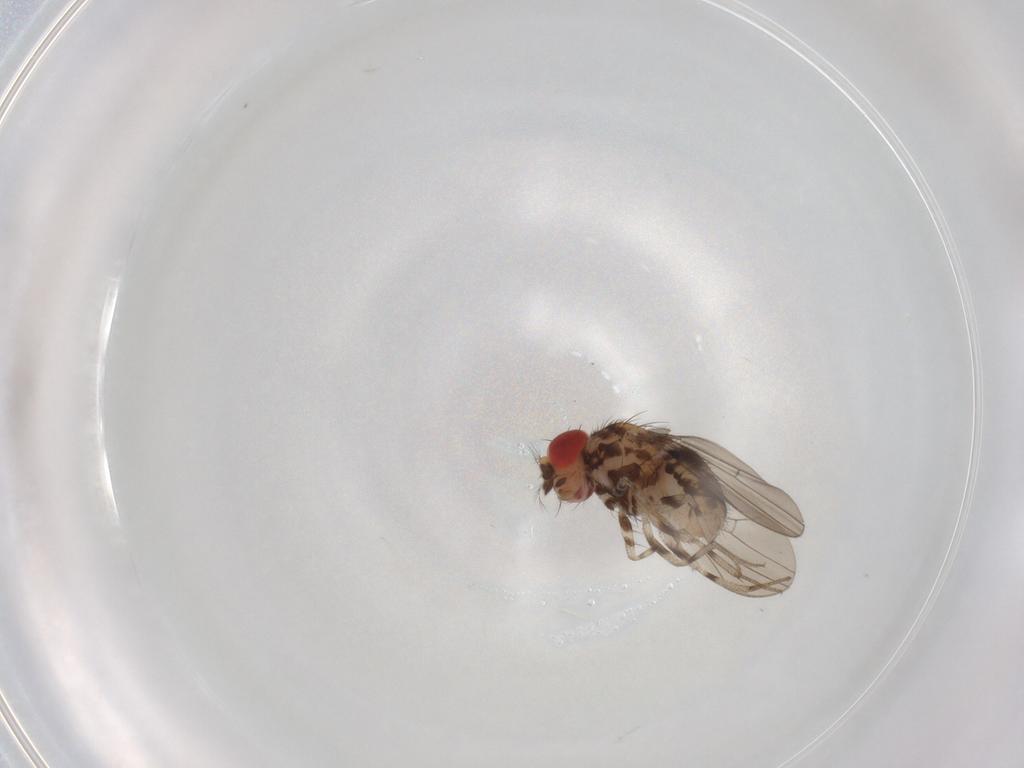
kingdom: Animalia
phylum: Arthropoda
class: Insecta
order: Diptera
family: Drosophilidae
